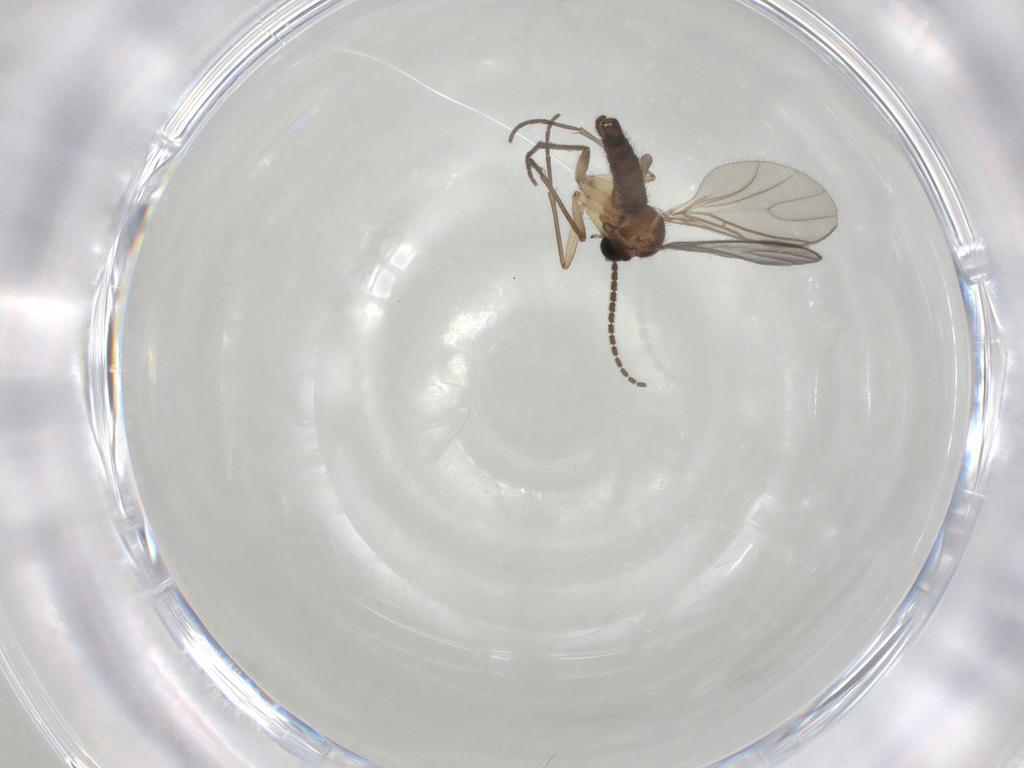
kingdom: Animalia
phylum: Arthropoda
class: Insecta
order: Diptera
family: Sciaridae
